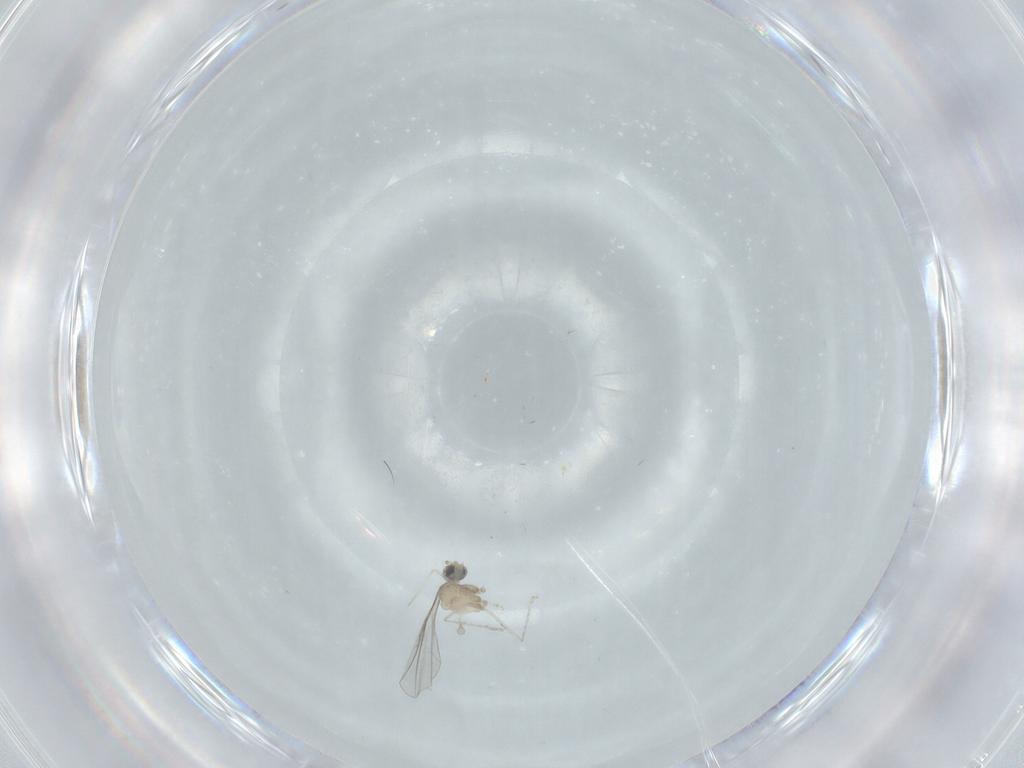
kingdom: Animalia
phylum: Arthropoda
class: Insecta
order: Diptera
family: Cecidomyiidae
